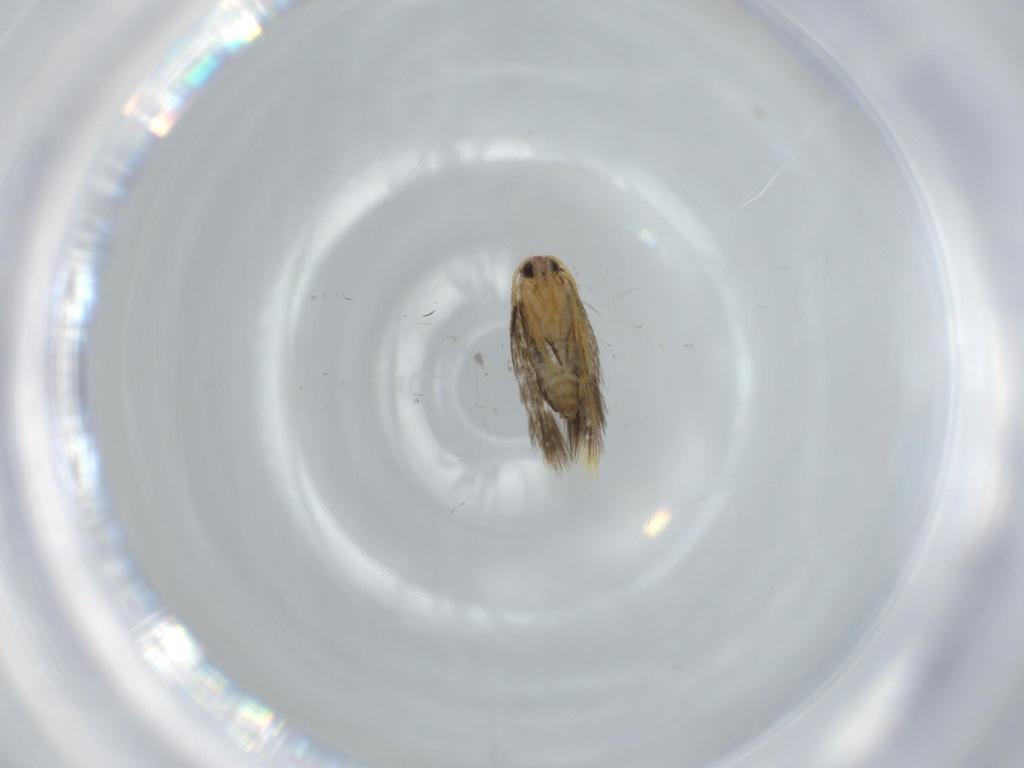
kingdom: Animalia
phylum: Arthropoda
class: Insecta
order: Lepidoptera
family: Copromorphidae
